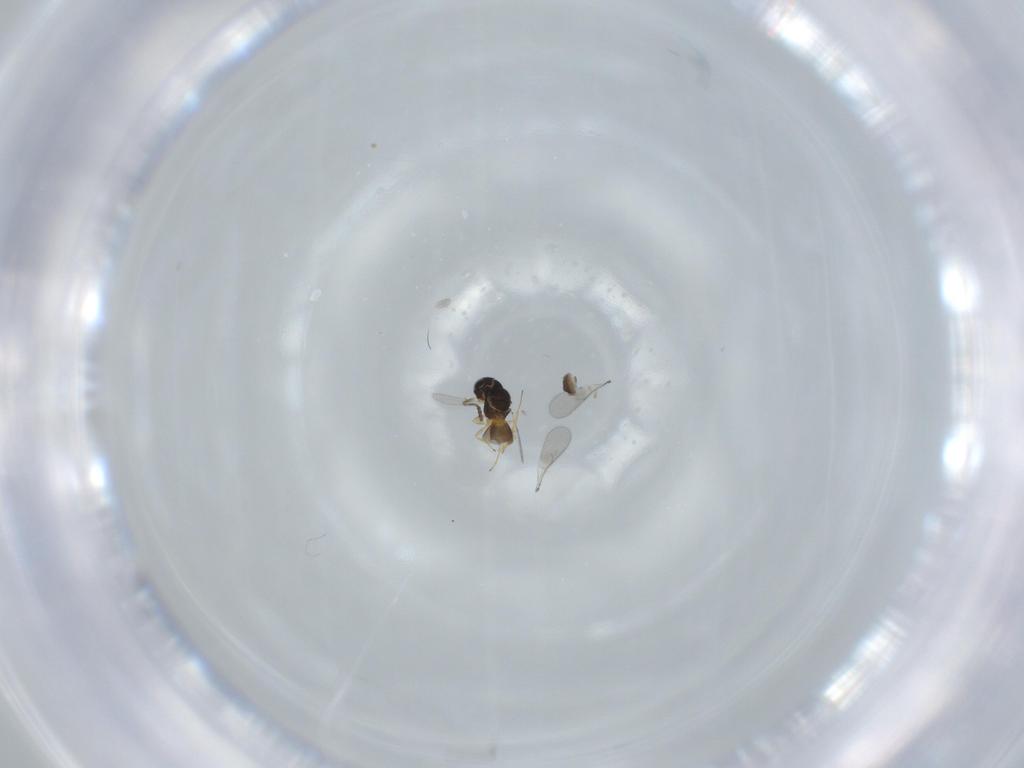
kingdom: Animalia
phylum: Arthropoda
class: Insecta
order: Hymenoptera
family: Scelionidae
